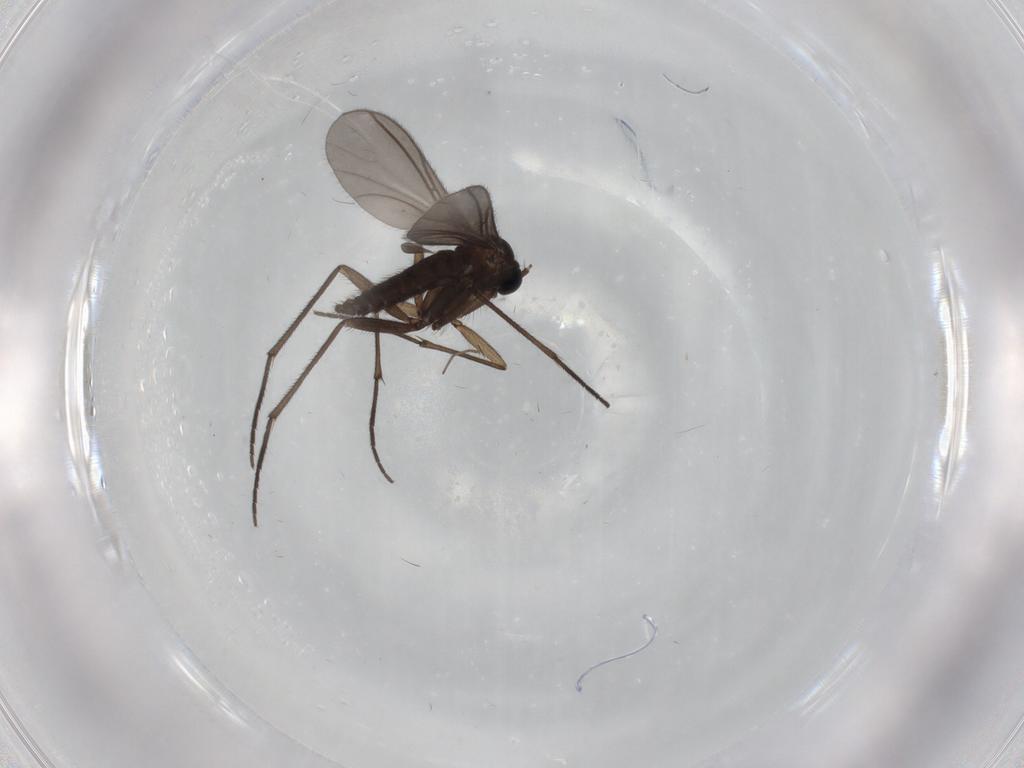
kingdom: Animalia
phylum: Arthropoda
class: Insecta
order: Diptera
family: Sciaridae
